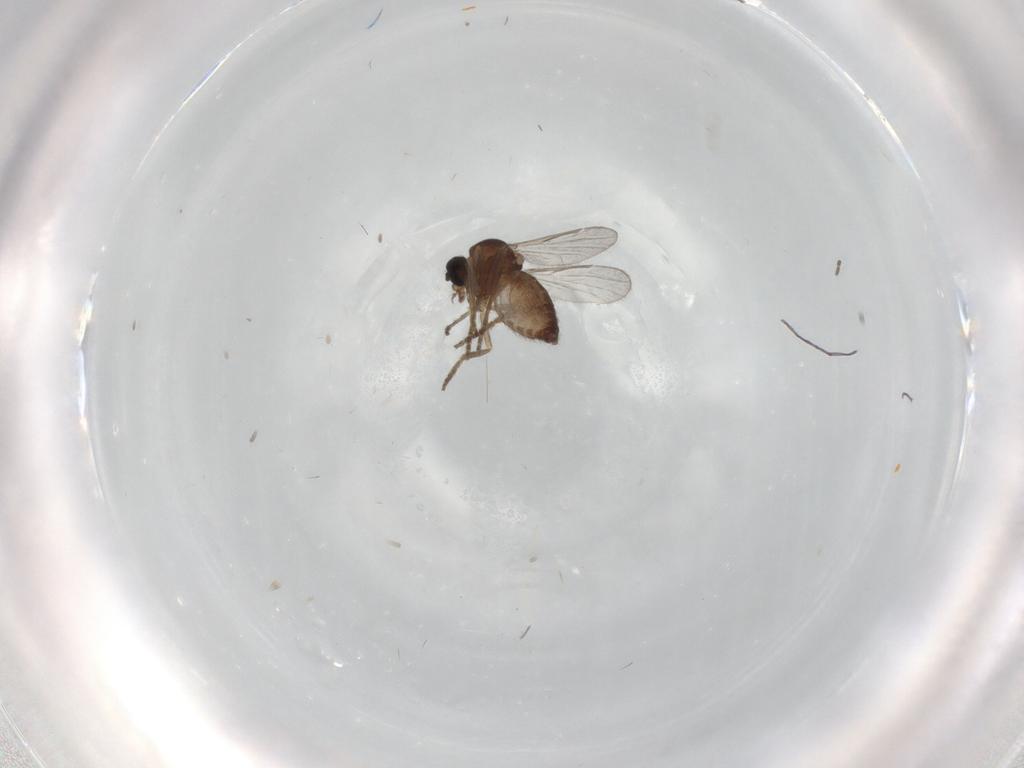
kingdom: Animalia
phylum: Arthropoda
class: Insecta
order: Diptera
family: Ceratopogonidae
